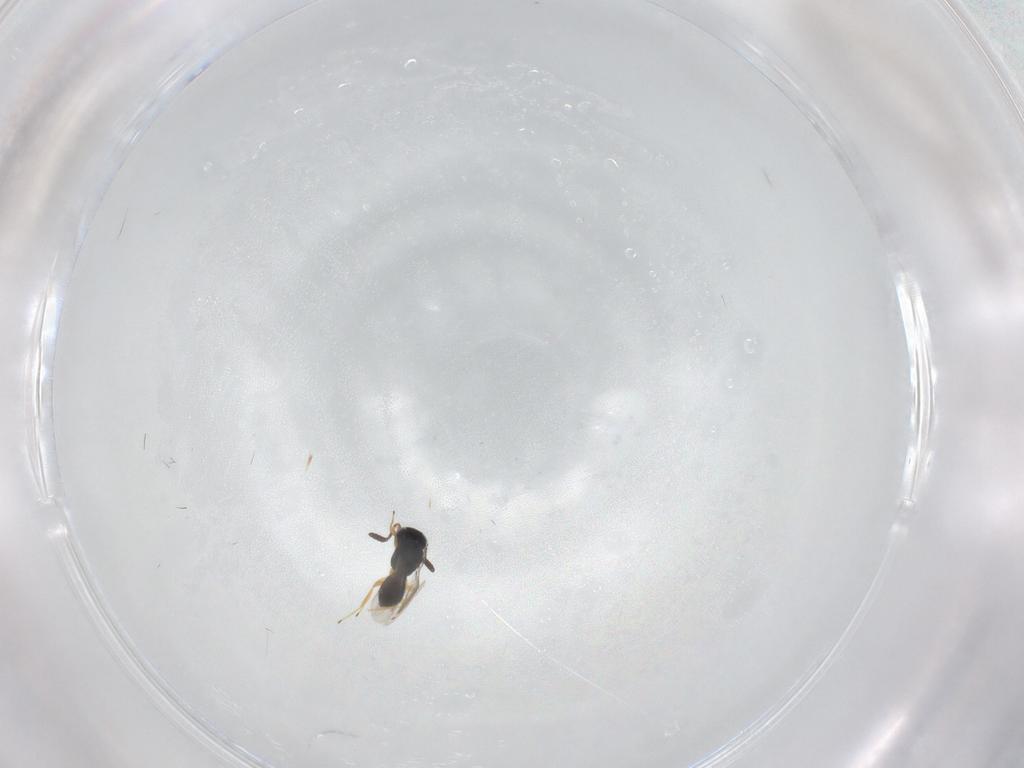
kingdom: Animalia
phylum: Arthropoda
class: Insecta
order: Hymenoptera
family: Scelionidae
